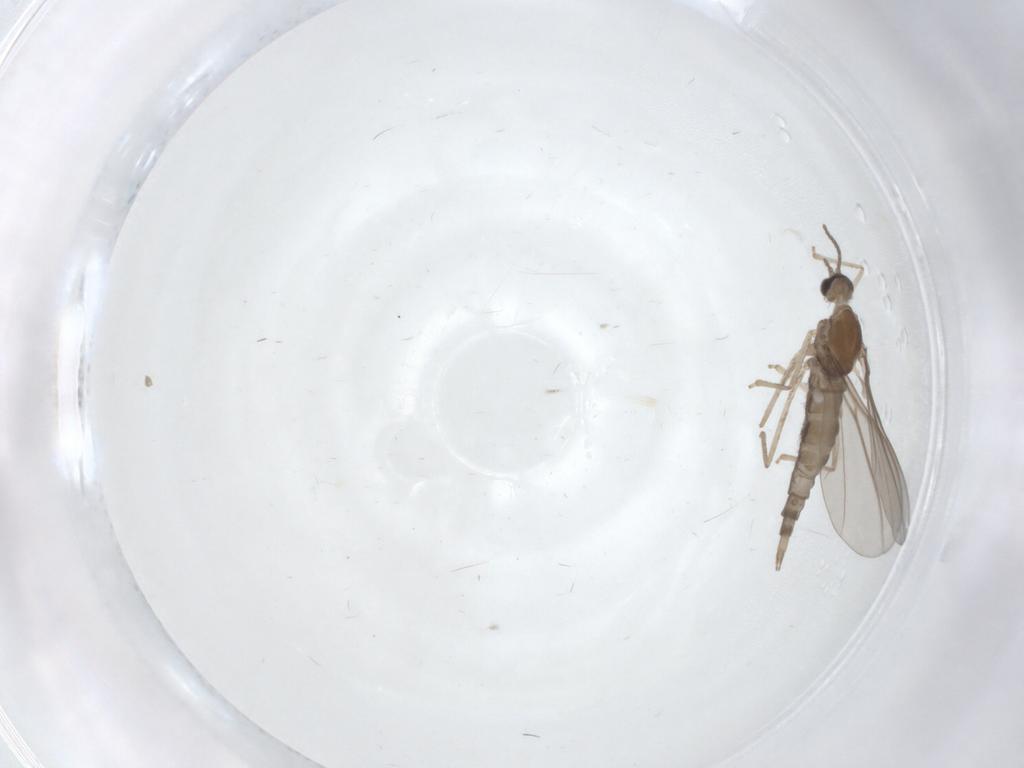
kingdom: Animalia
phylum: Arthropoda
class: Insecta
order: Diptera
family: Cecidomyiidae
